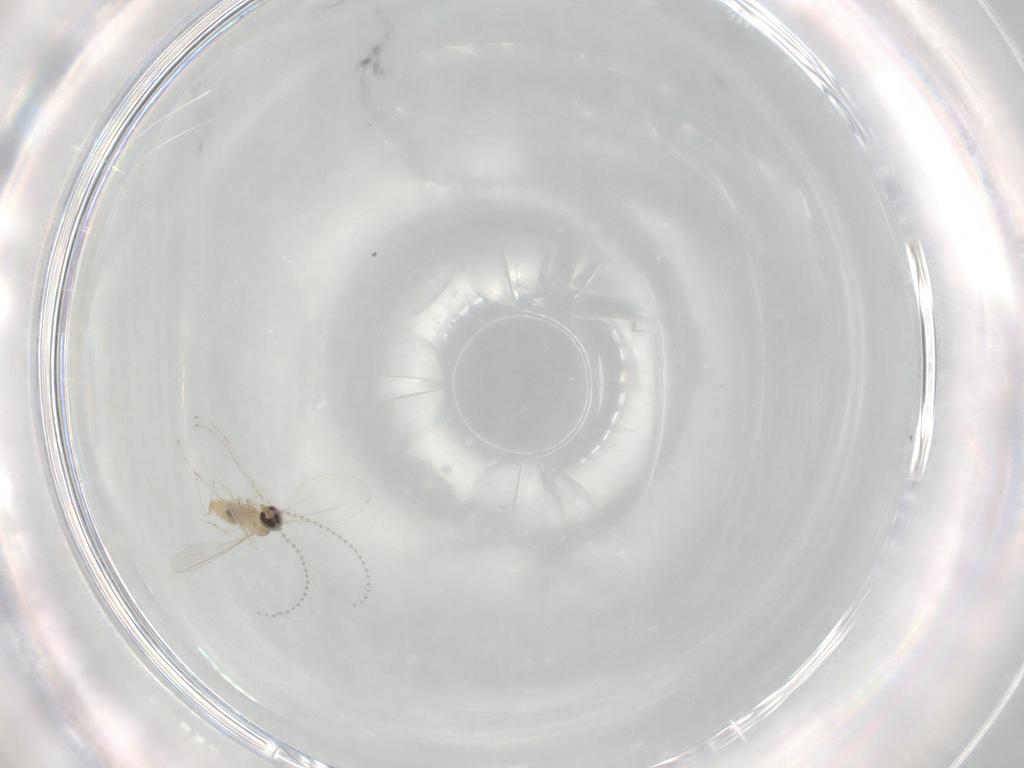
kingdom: Animalia
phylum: Arthropoda
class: Insecta
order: Diptera
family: Cecidomyiidae
